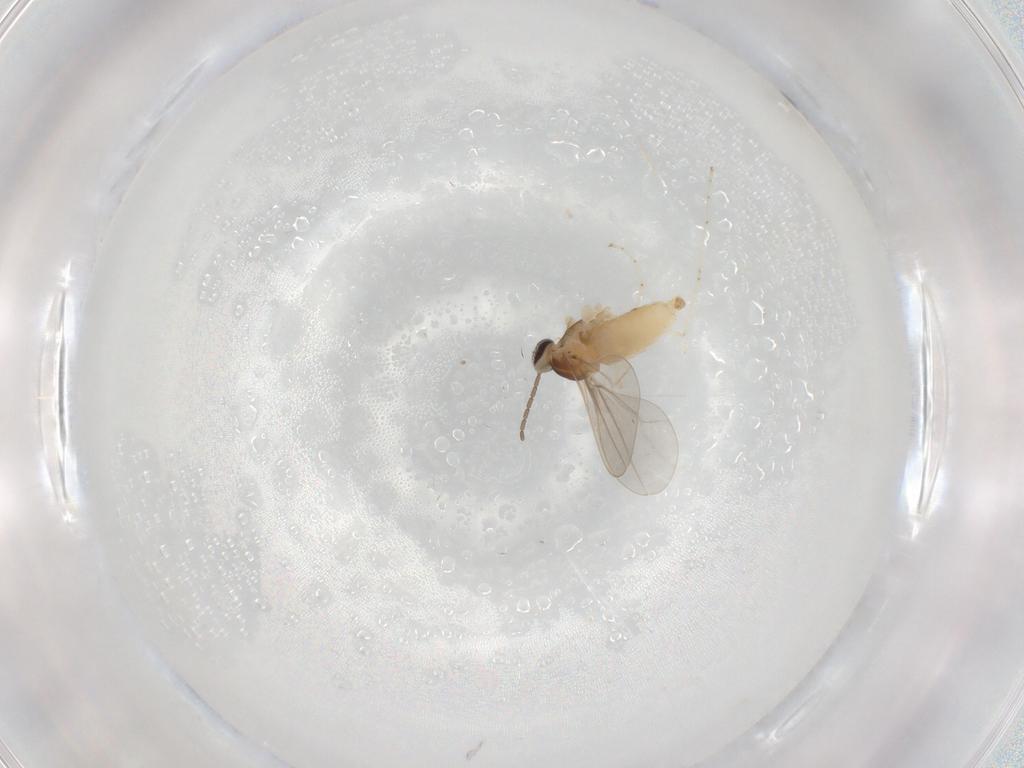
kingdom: Animalia
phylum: Arthropoda
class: Insecta
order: Diptera
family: Cecidomyiidae
